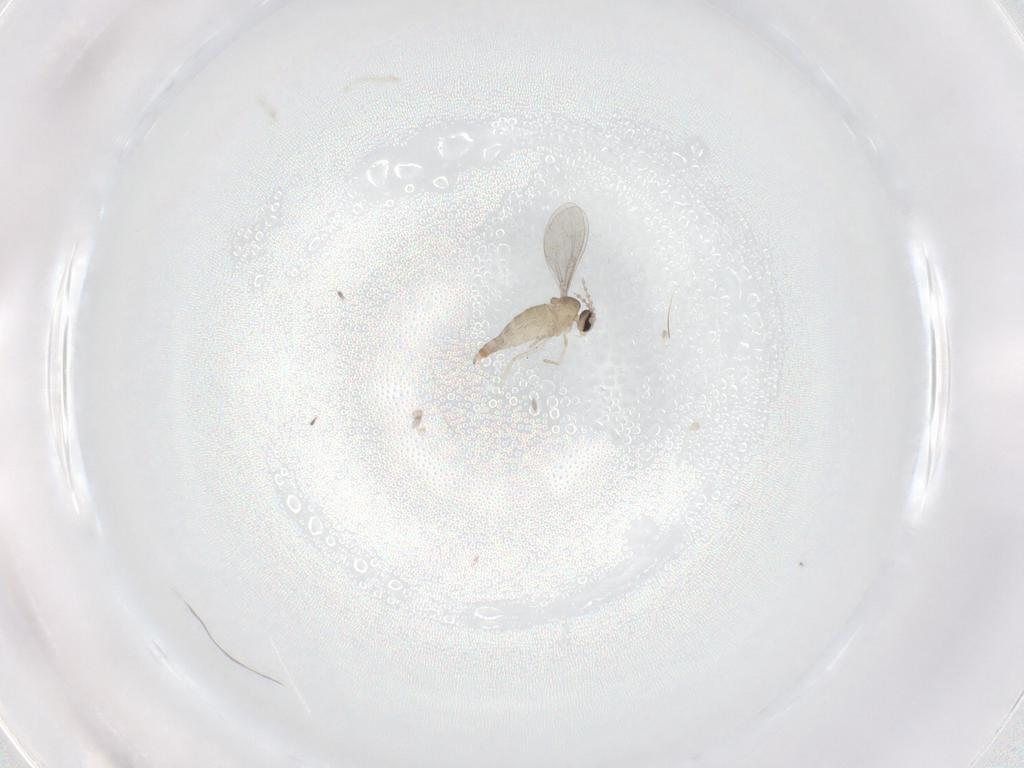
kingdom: Animalia
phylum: Arthropoda
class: Insecta
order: Diptera
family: Cecidomyiidae
